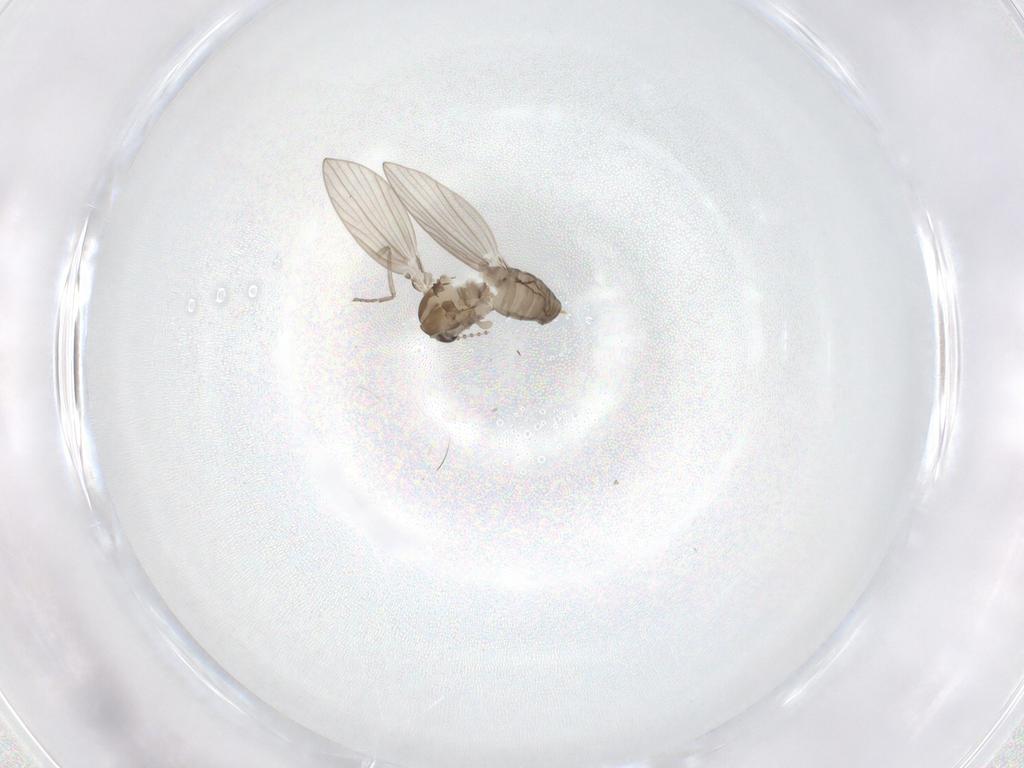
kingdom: Animalia
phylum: Arthropoda
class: Insecta
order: Diptera
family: Psychodidae
